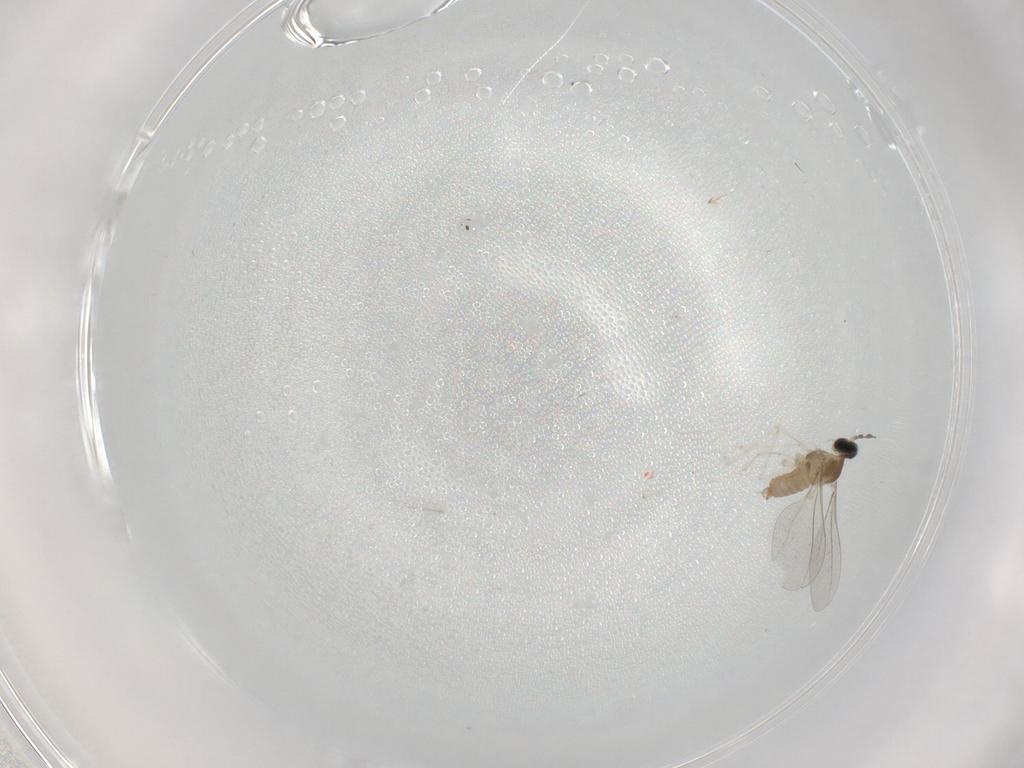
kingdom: Animalia
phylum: Arthropoda
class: Insecta
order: Diptera
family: Cecidomyiidae
